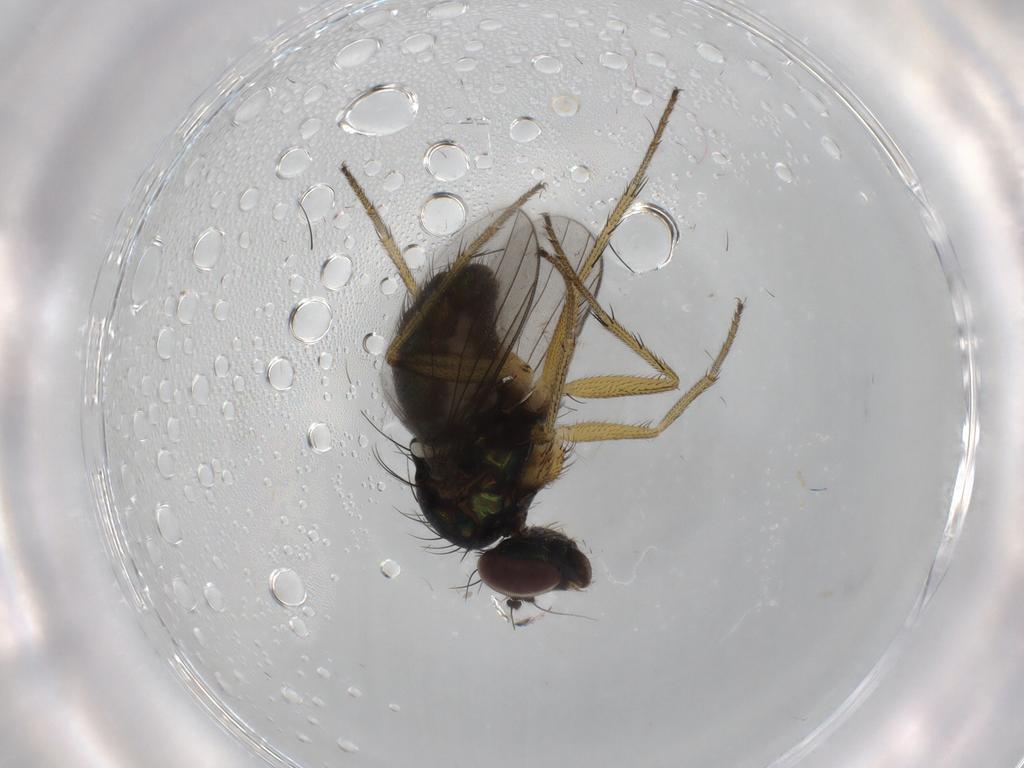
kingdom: Animalia
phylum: Arthropoda
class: Insecta
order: Diptera
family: Dolichopodidae
